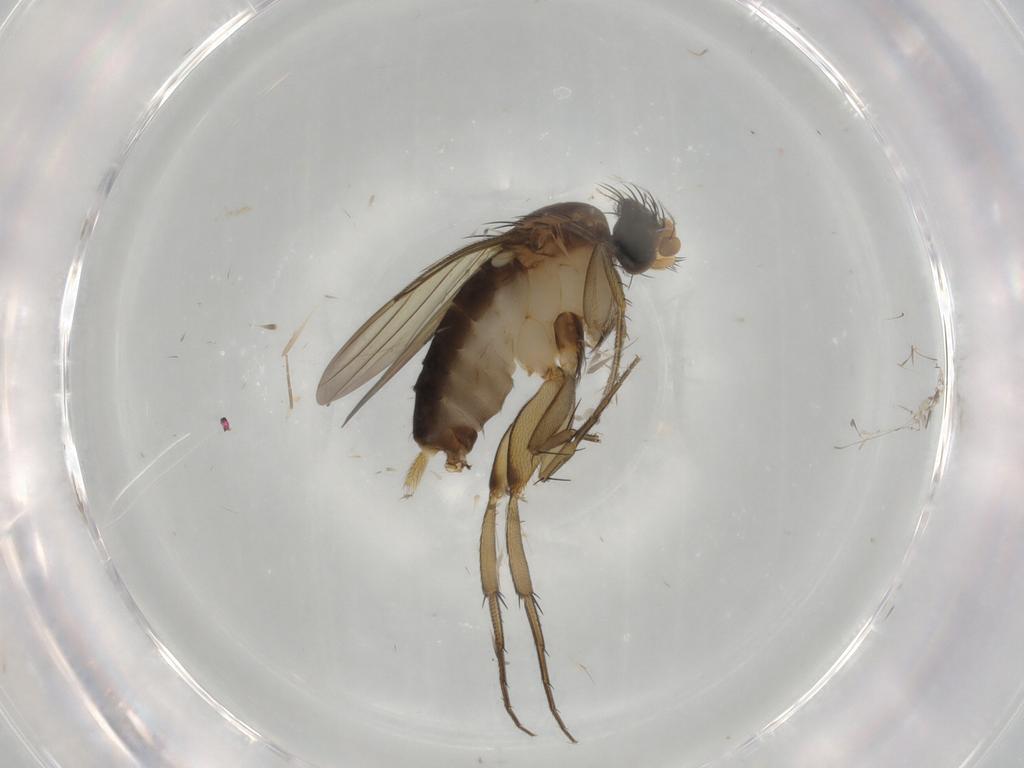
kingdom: Animalia
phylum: Arthropoda
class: Insecta
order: Diptera
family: Phoridae
